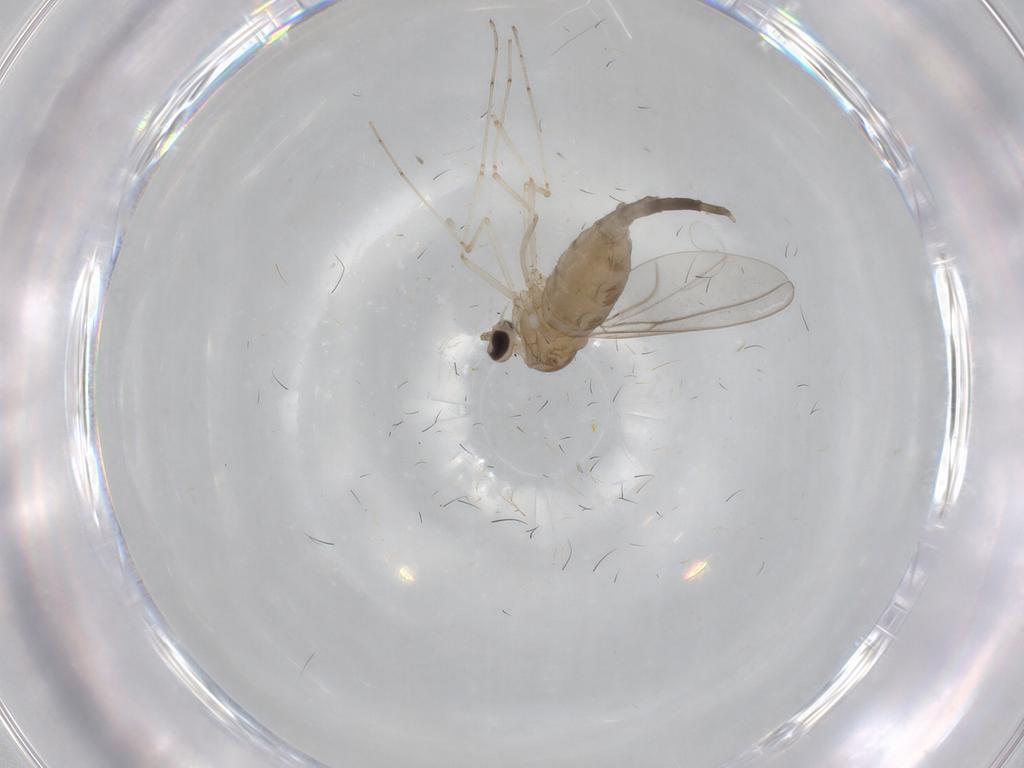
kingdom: Animalia
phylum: Arthropoda
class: Insecta
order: Diptera
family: Cecidomyiidae
